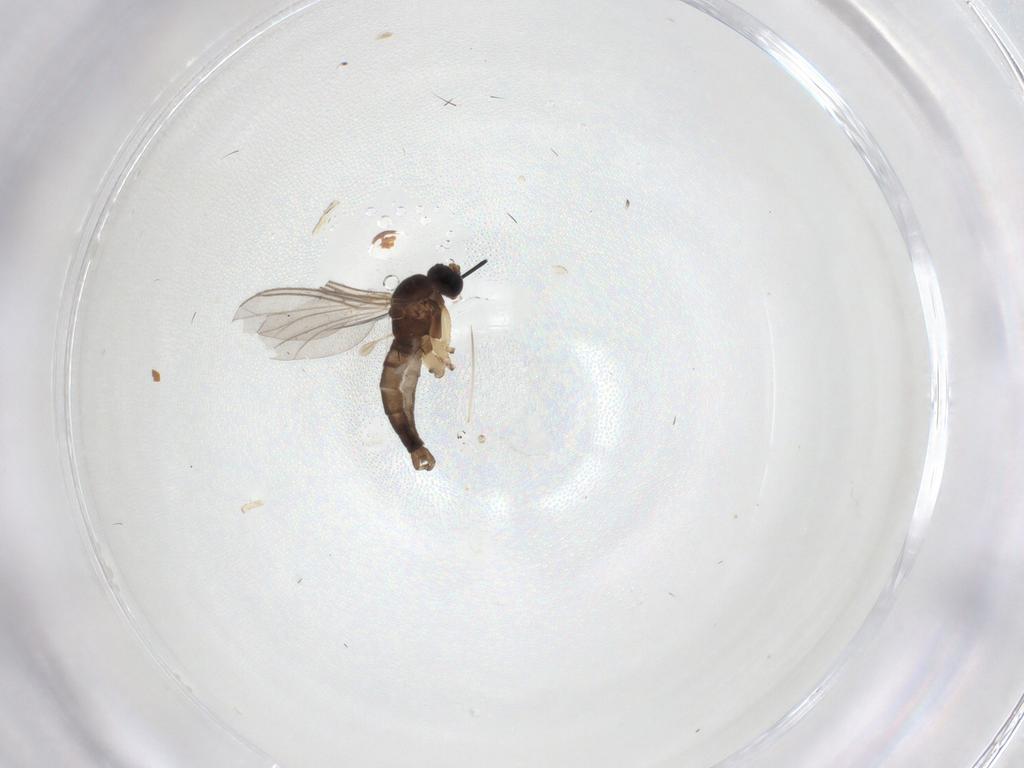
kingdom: Animalia
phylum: Arthropoda
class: Insecta
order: Diptera
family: Sciaridae
